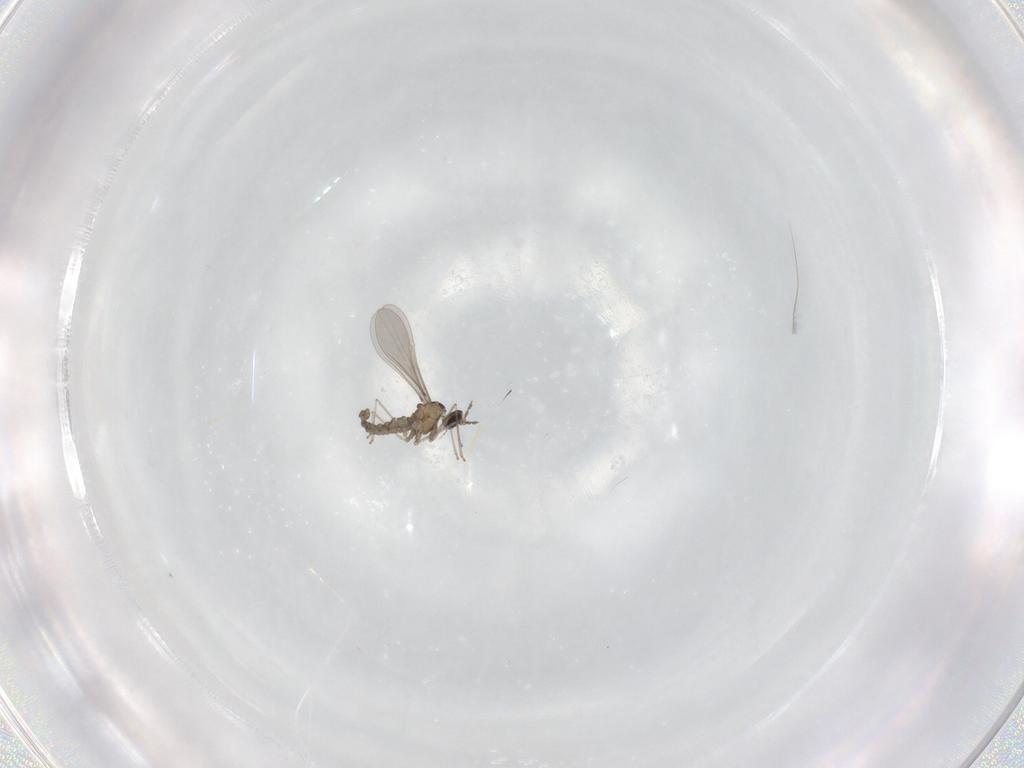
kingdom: Animalia
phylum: Arthropoda
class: Insecta
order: Diptera
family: Cecidomyiidae
